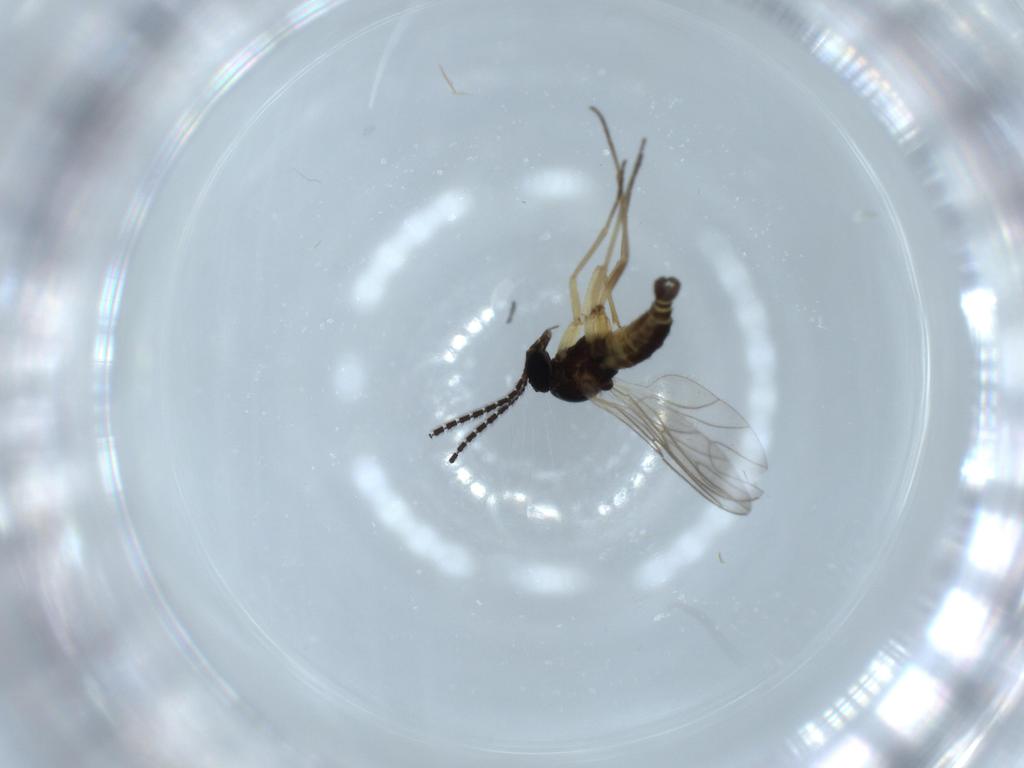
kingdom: Animalia
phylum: Arthropoda
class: Insecta
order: Diptera
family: Sciaridae
